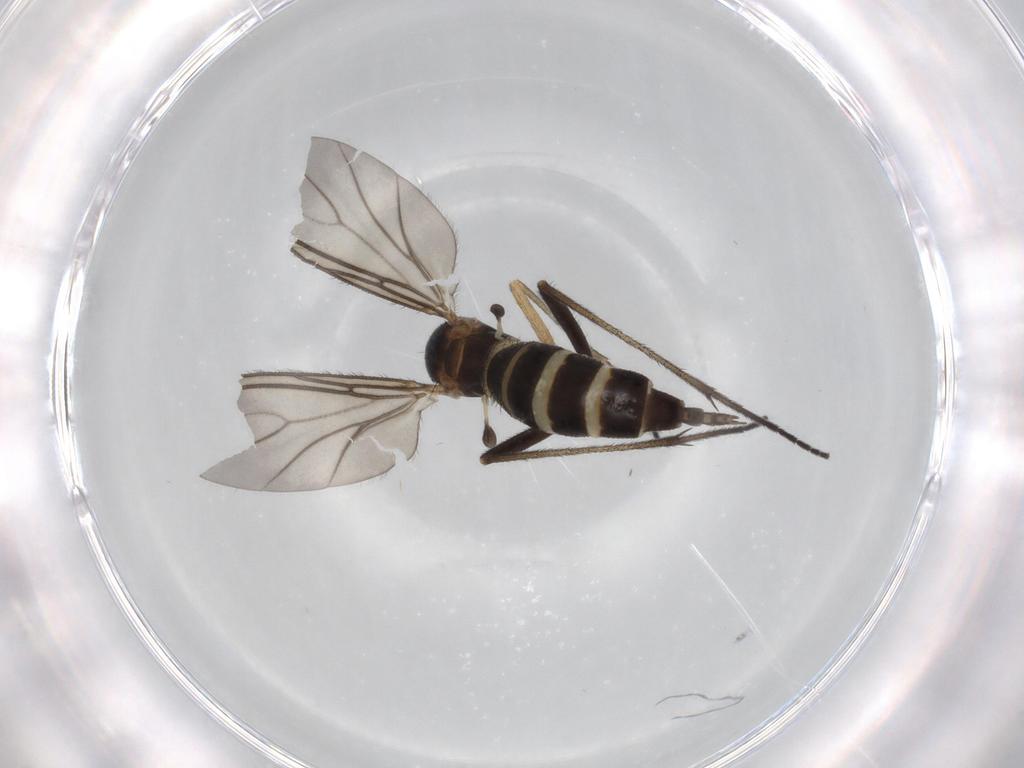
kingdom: Animalia
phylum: Arthropoda
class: Insecta
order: Diptera
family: Sciaridae
